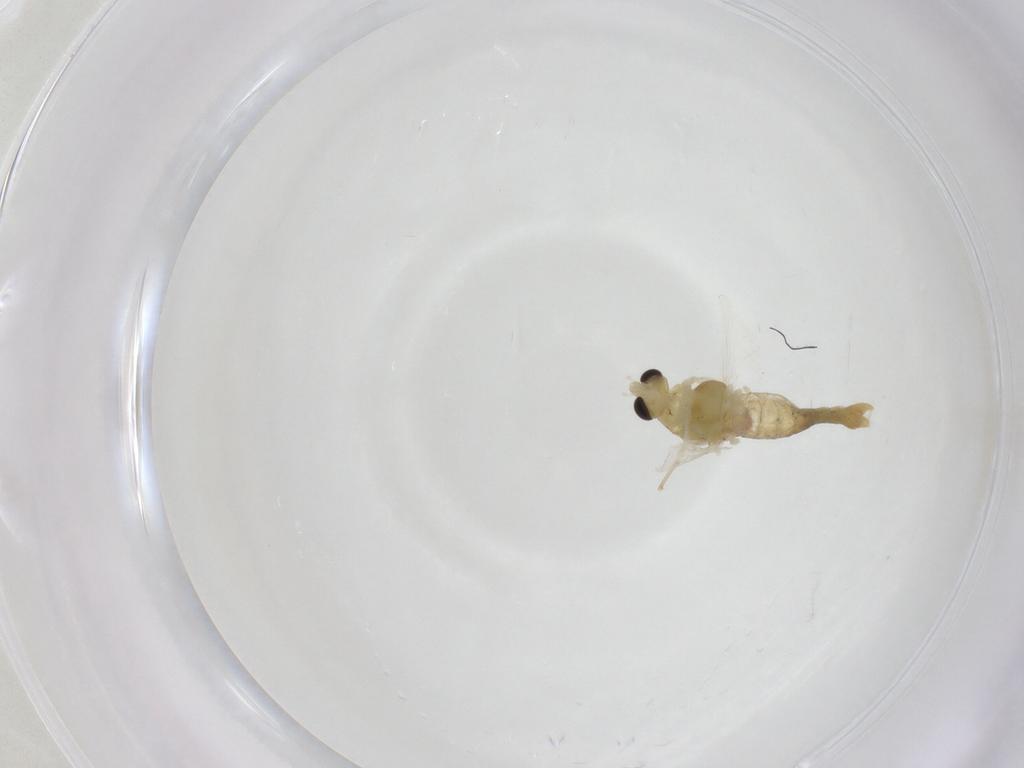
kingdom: Animalia
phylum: Arthropoda
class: Insecta
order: Diptera
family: Chironomidae
